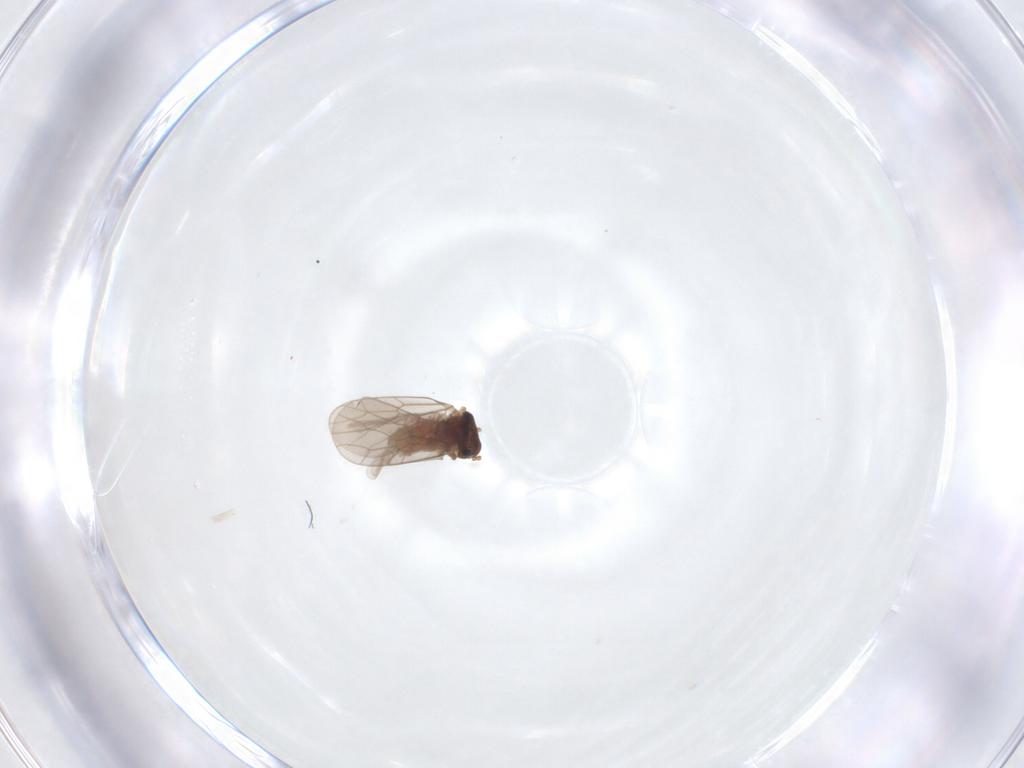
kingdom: Animalia
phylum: Arthropoda
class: Insecta
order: Psocodea
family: Lepidopsocidae
